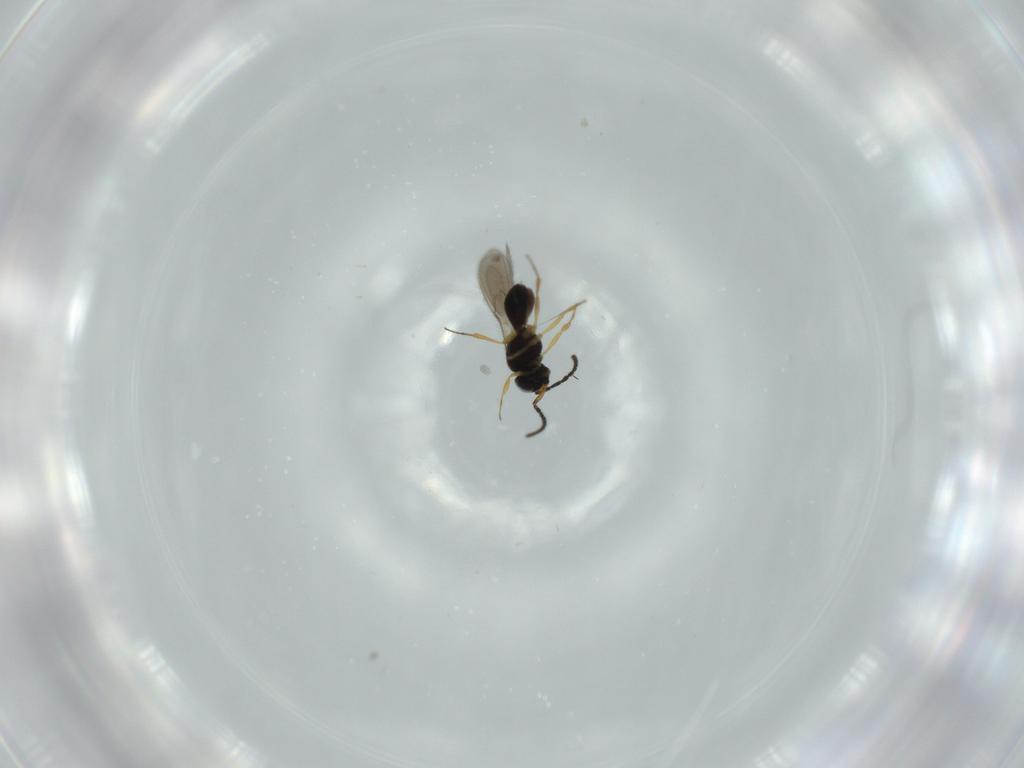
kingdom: Animalia
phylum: Arthropoda
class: Insecta
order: Hymenoptera
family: Scelionidae
